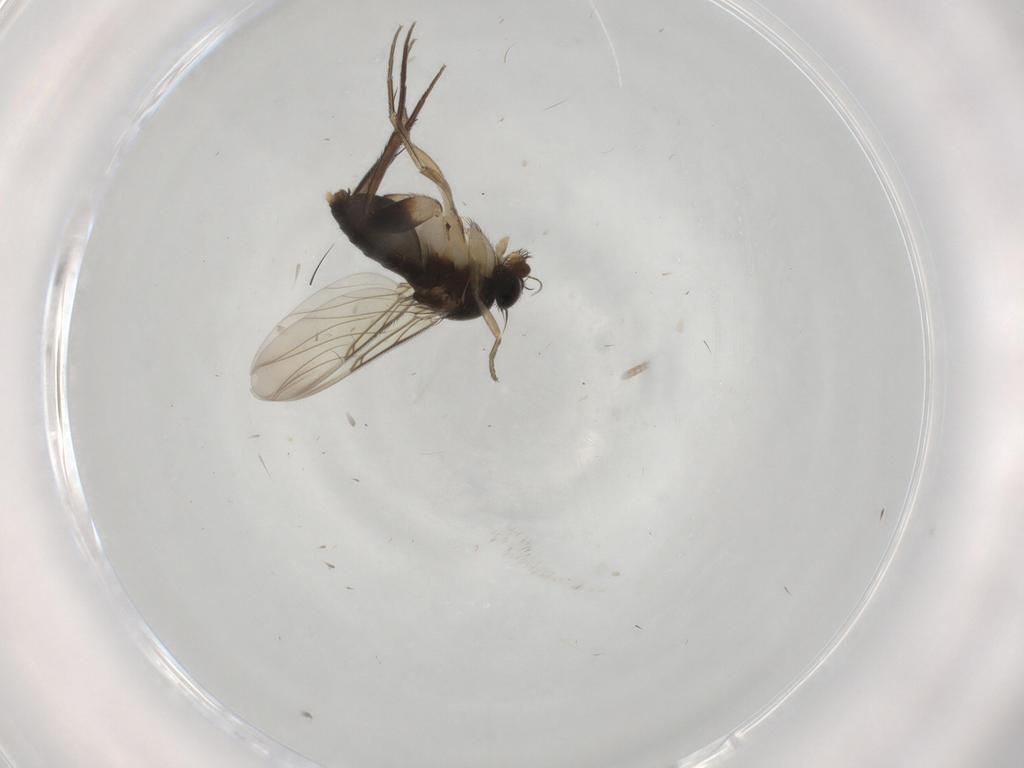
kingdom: Animalia
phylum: Arthropoda
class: Insecta
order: Diptera
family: Phoridae
